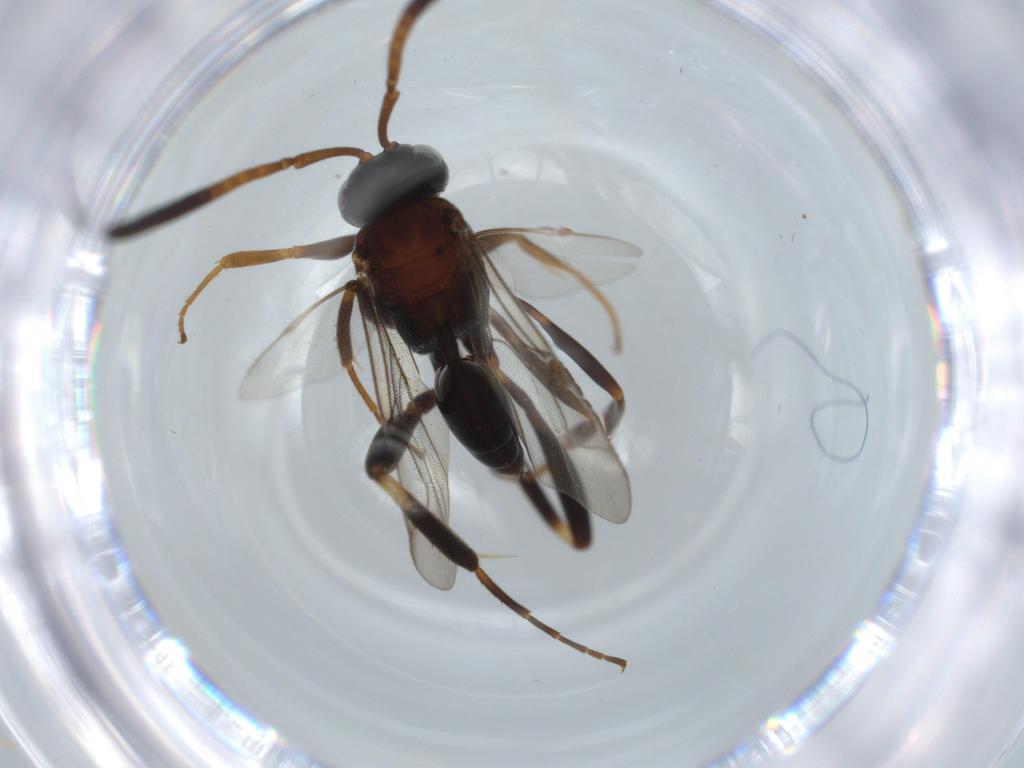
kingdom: Animalia
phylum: Arthropoda
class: Insecta
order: Hymenoptera
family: Evaniidae
